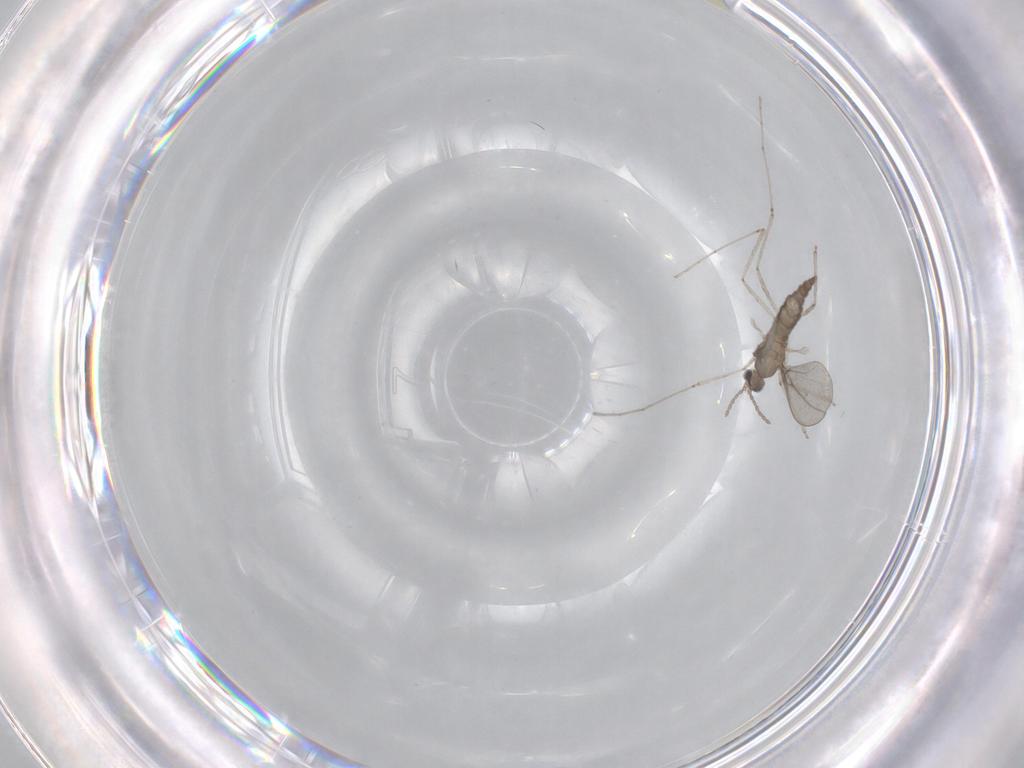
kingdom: Animalia
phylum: Arthropoda
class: Insecta
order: Diptera
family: Cecidomyiidae
